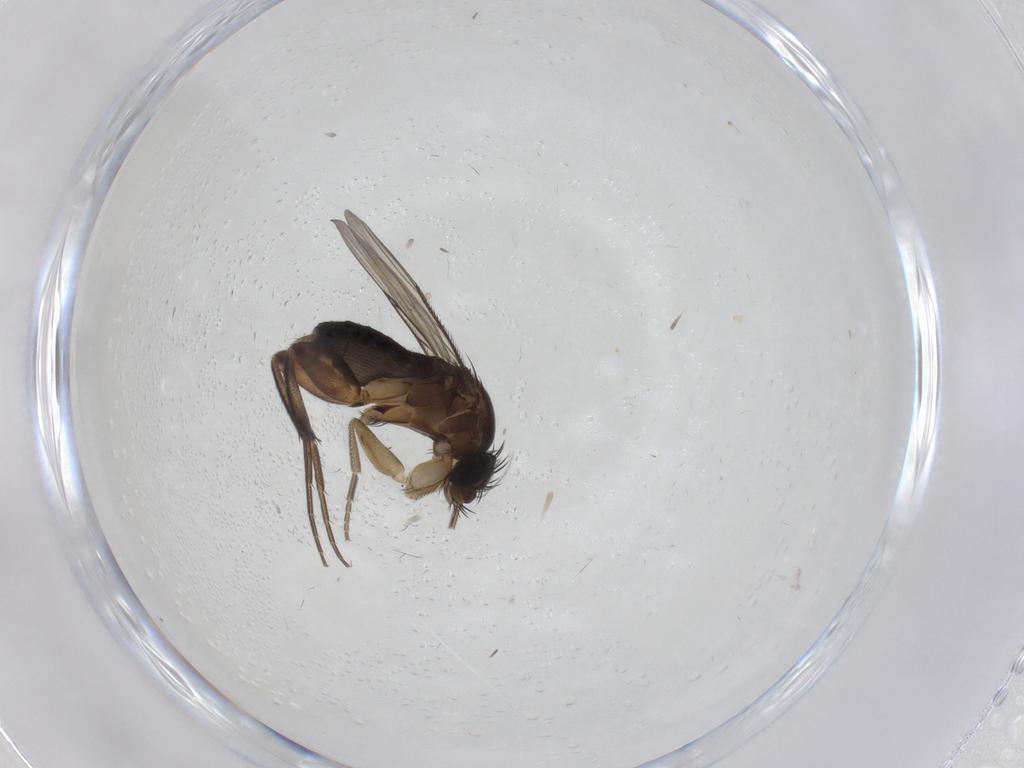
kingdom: Animalia
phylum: Arthropoda
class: Insecta
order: Diptera
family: Phoridae
